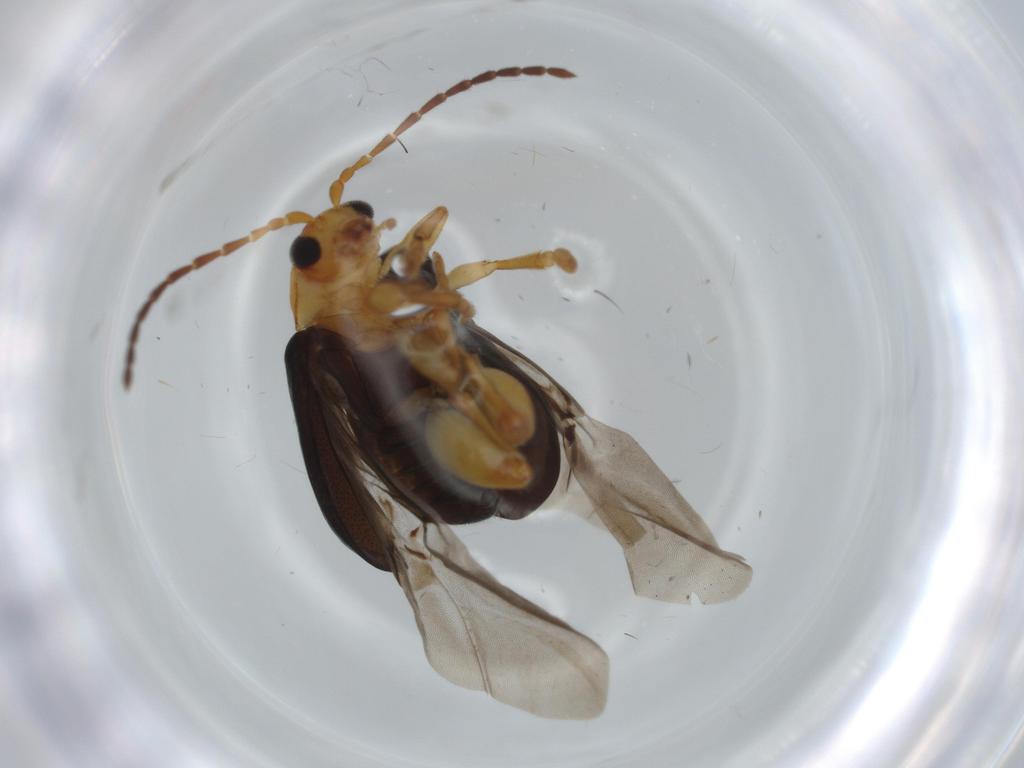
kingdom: Animalia
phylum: Arthropoda
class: Insecta
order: Coleoptera
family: Chrysomelidae
